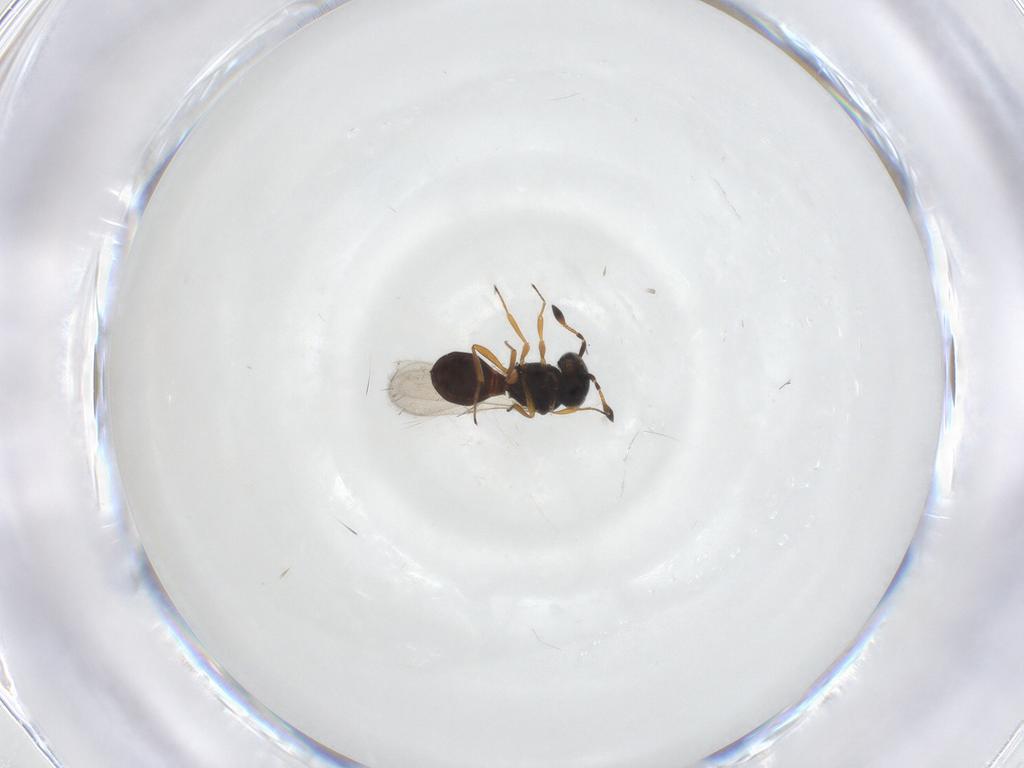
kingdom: Animalia
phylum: Arthropoda
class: Insecta
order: Hymenoptera
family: Scelionidae
